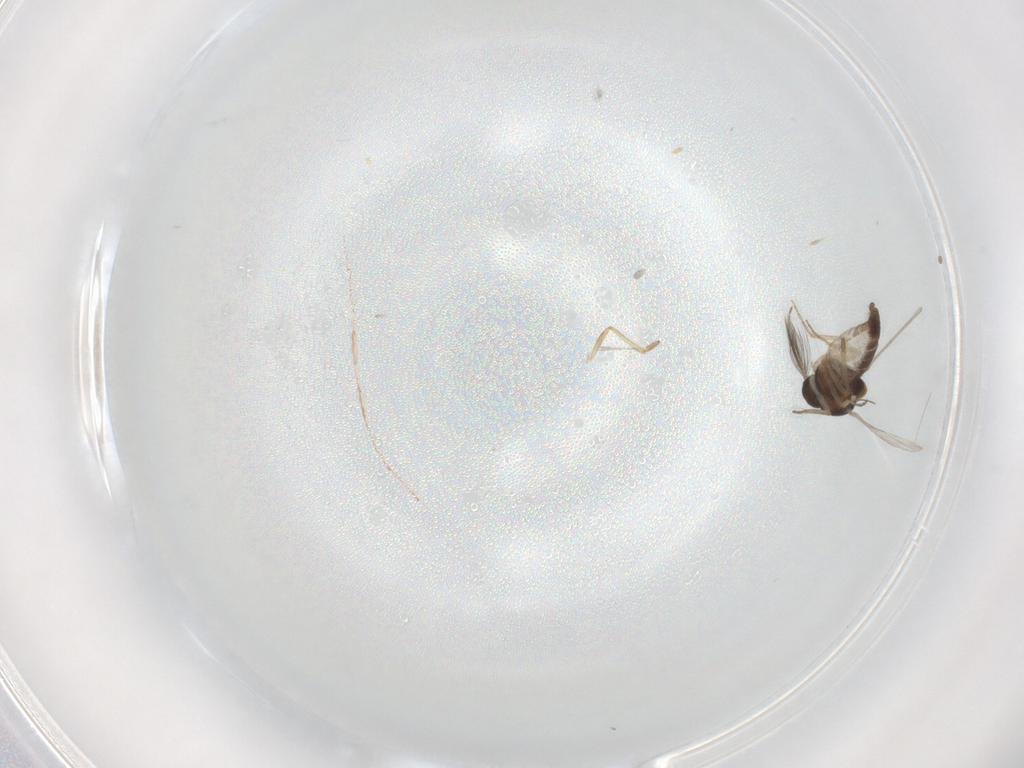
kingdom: Animalia
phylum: Arthropoda
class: Insecta
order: Diptera
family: Ceratopogonidae
